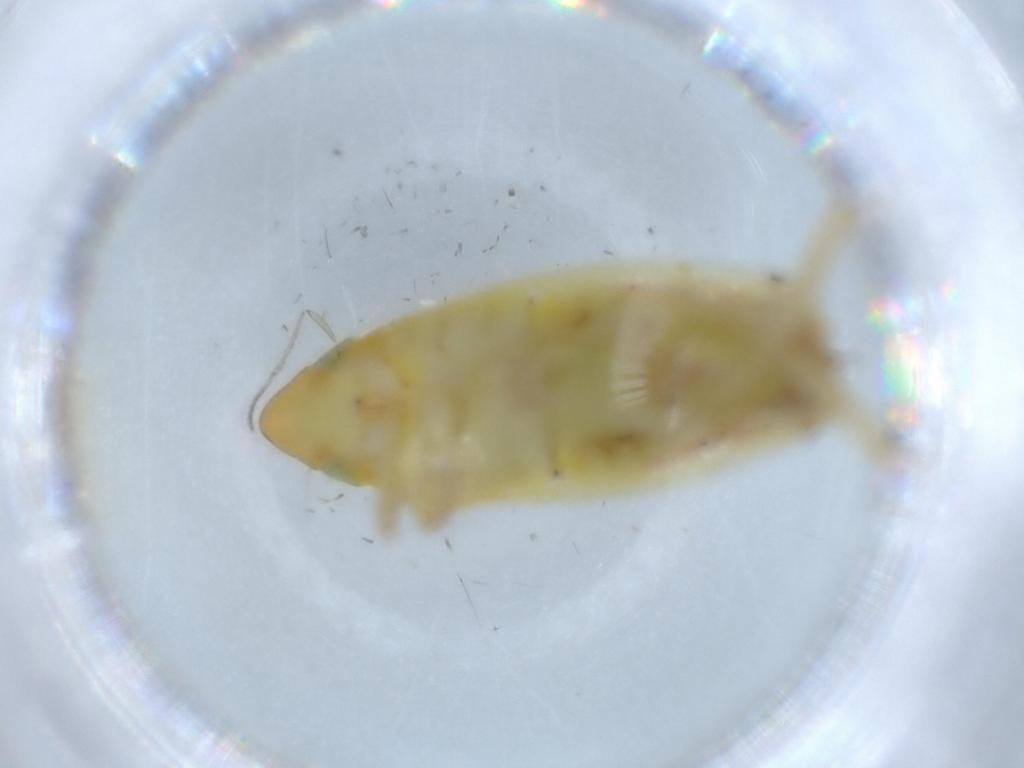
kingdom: Animalia
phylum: Arthropoda
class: Insecta
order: Hemiptera
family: Cicadellidae
